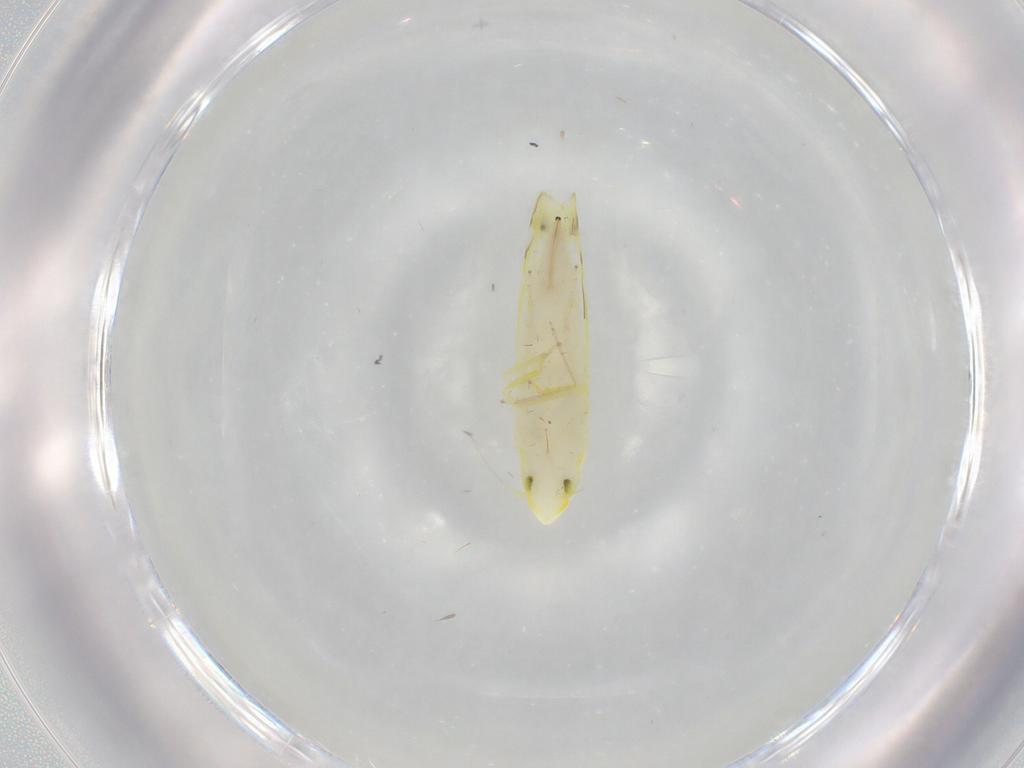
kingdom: Animalia
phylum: Arthropoda
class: Insecta
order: Hemiptera
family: Cicadellidae
